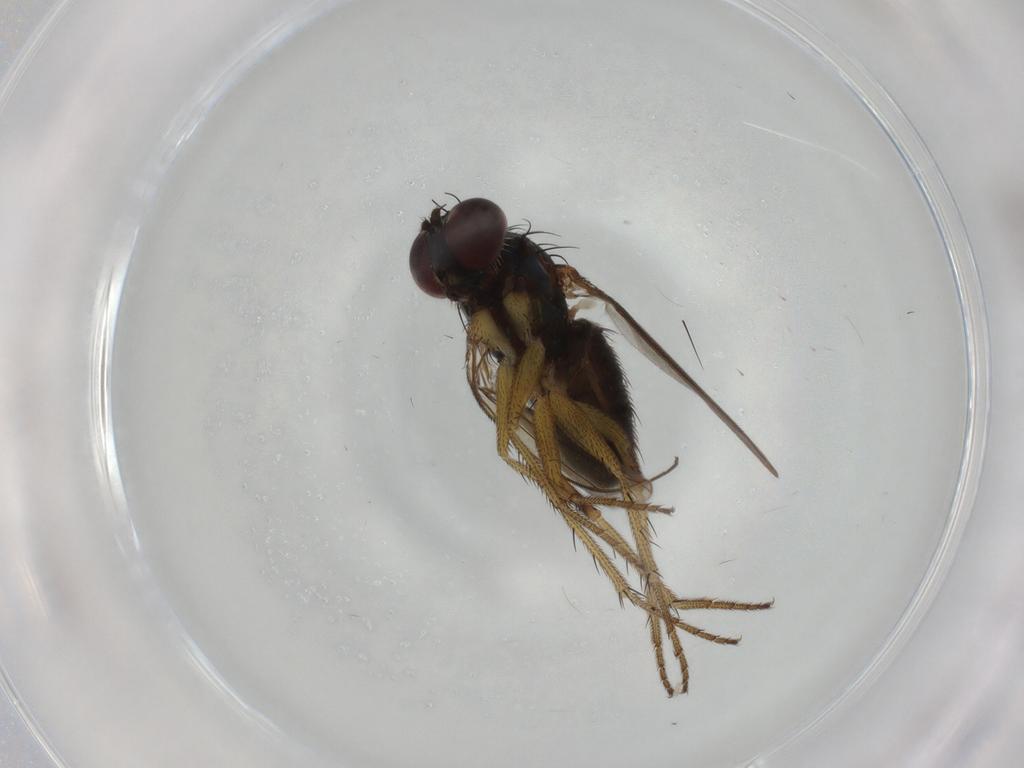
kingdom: Animalia
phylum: Arthropoda
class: Insecta
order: Diptera
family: Dolichopodidae
